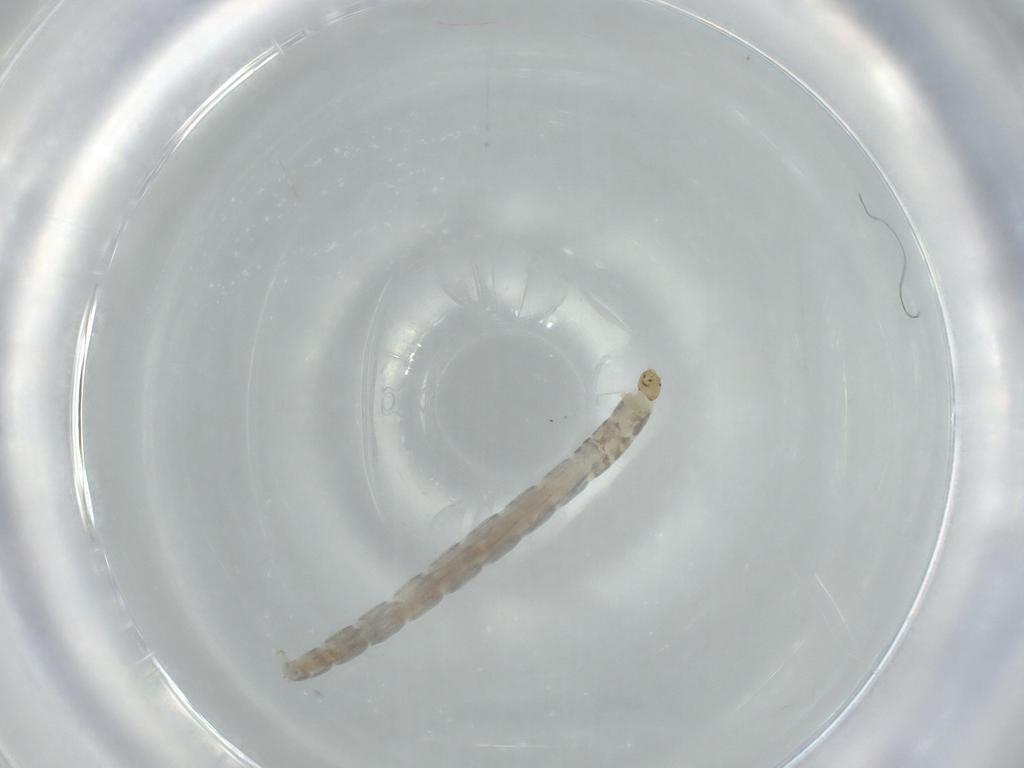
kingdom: Animalia
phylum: Arthropoda
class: Insecta
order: Diptera
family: Chironomidae
